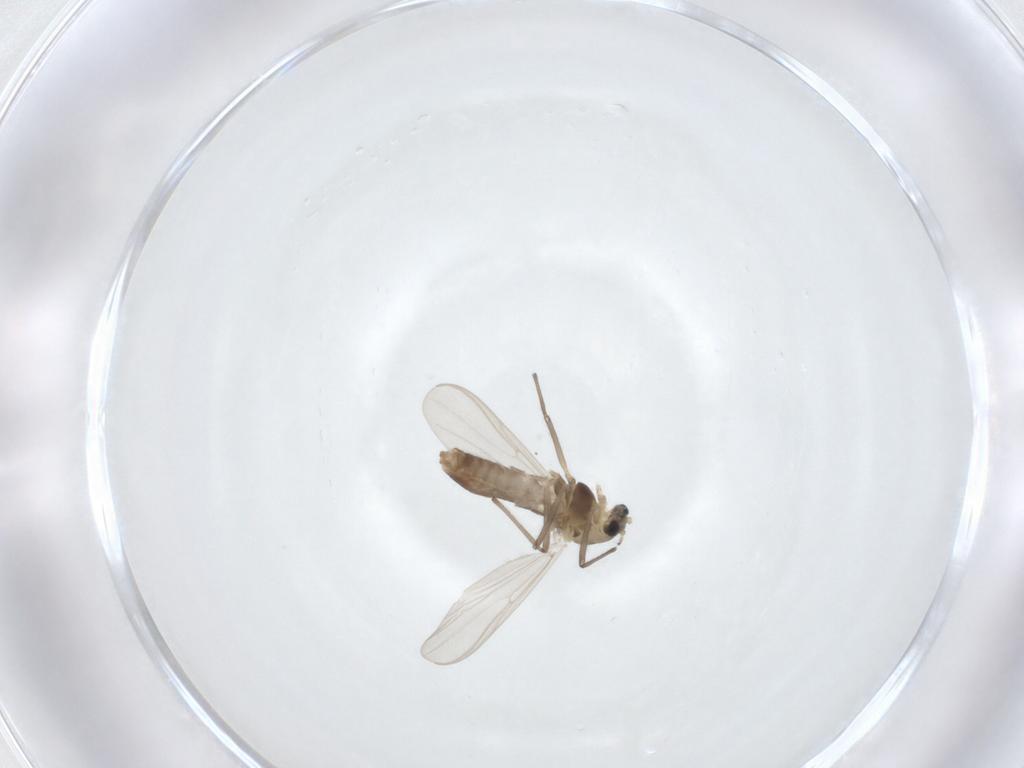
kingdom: Animalia
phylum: Arthropoda
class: Insecta
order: Diptera
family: Chironomidae
